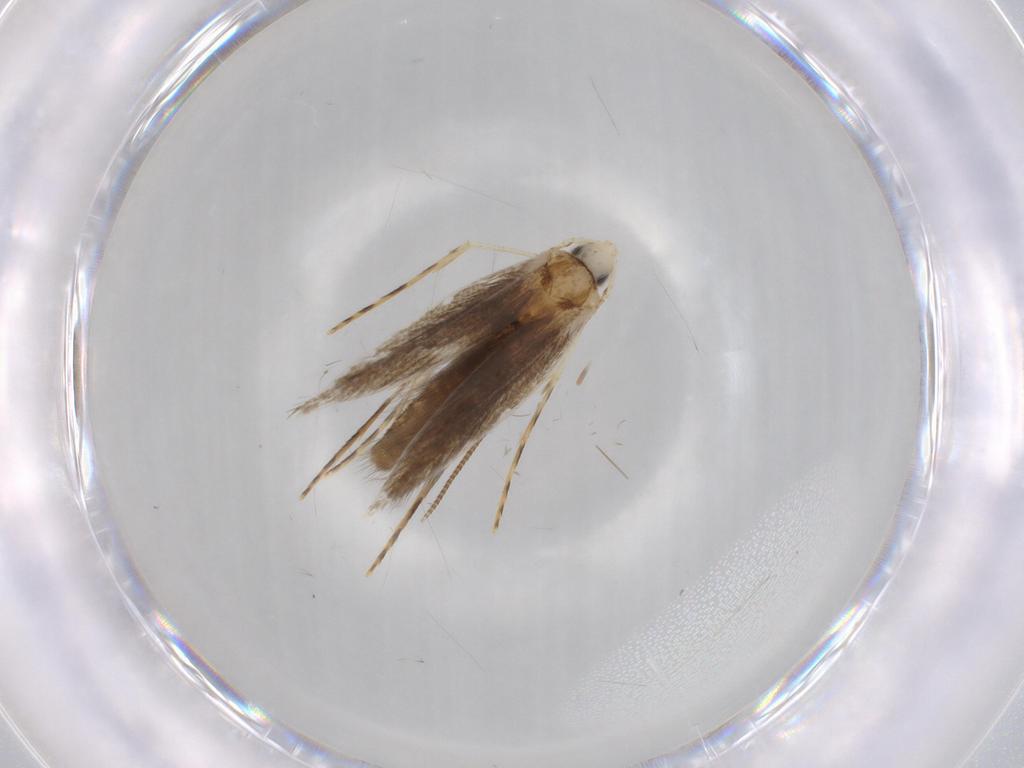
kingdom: Animalia
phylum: Arthropoda
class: Insecta
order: Lepidoptera
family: Psychidae
